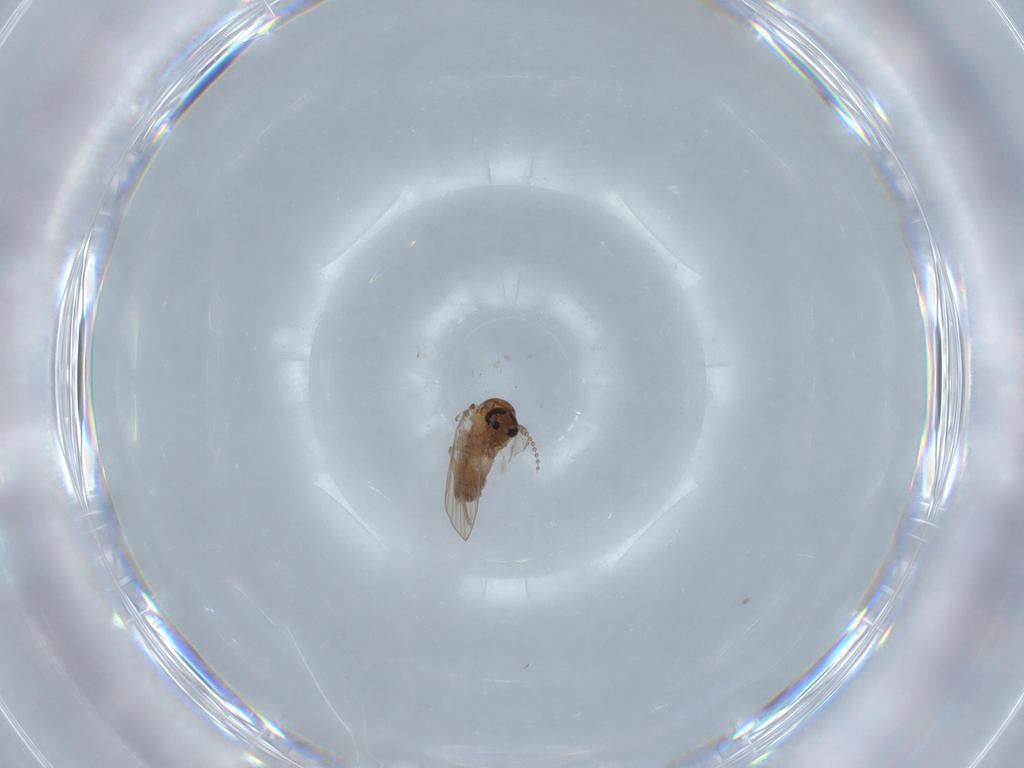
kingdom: Animalia
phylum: Arthropoda
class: Insecta
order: Diptera
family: Psychodidae
